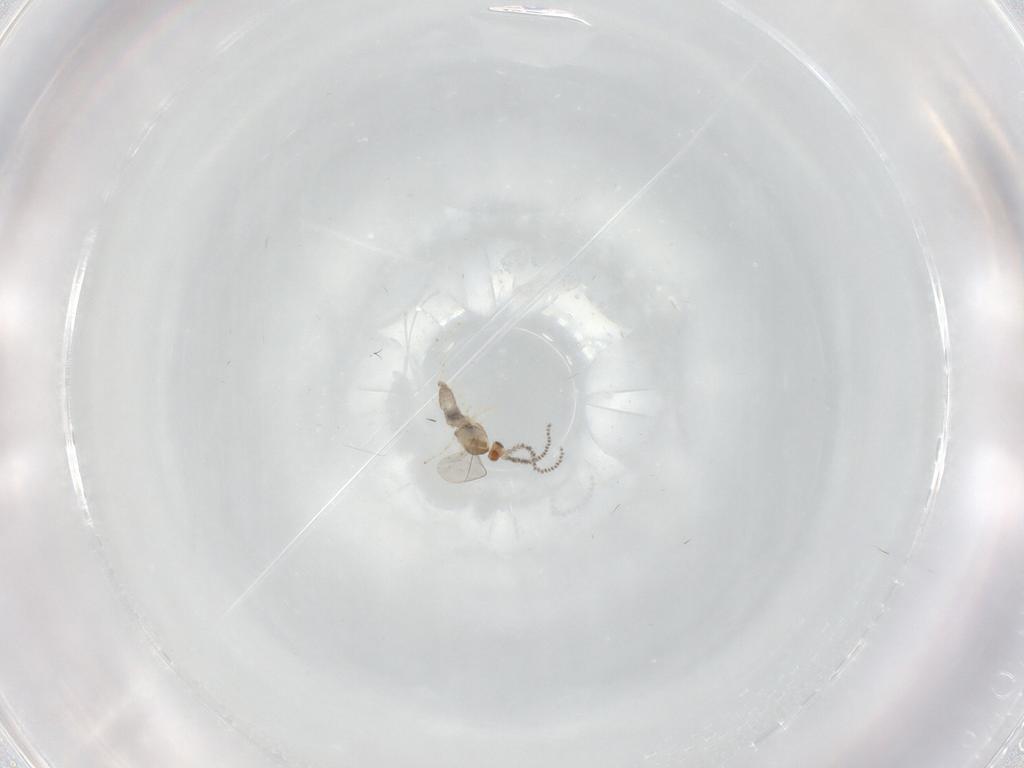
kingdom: Animalia
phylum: Arthropoda
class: Insecta
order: Diptera
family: Cecidomyiidae
